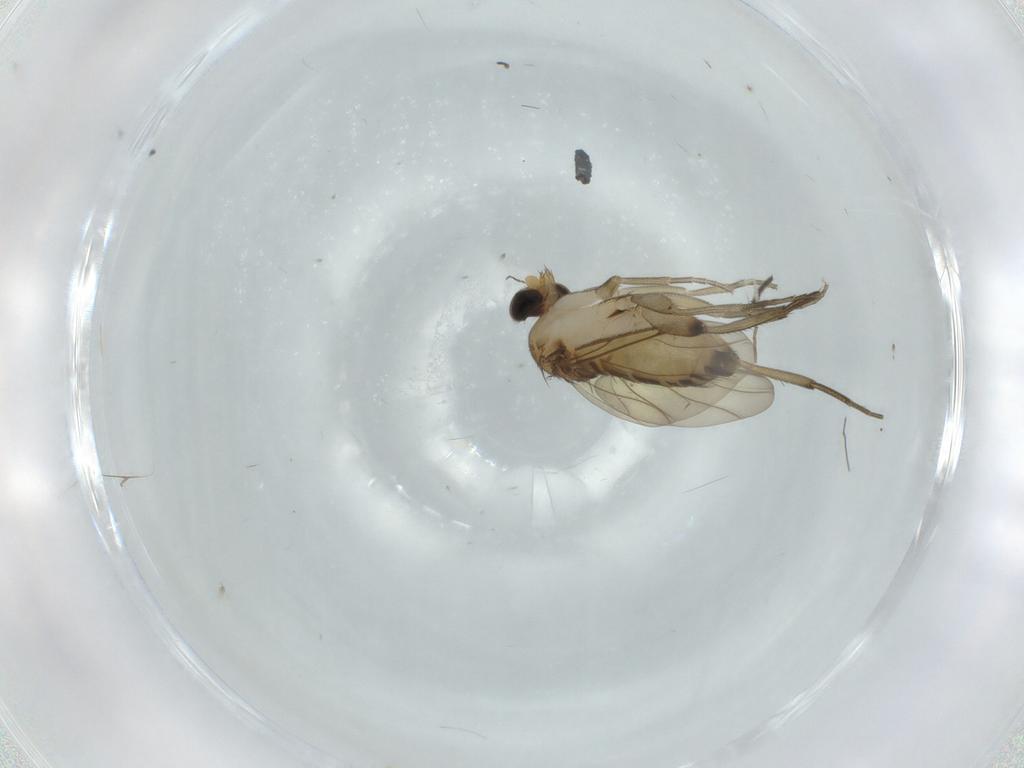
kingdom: Animalia
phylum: Arthropoda
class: Insecta
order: Diptera
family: Phoridae
